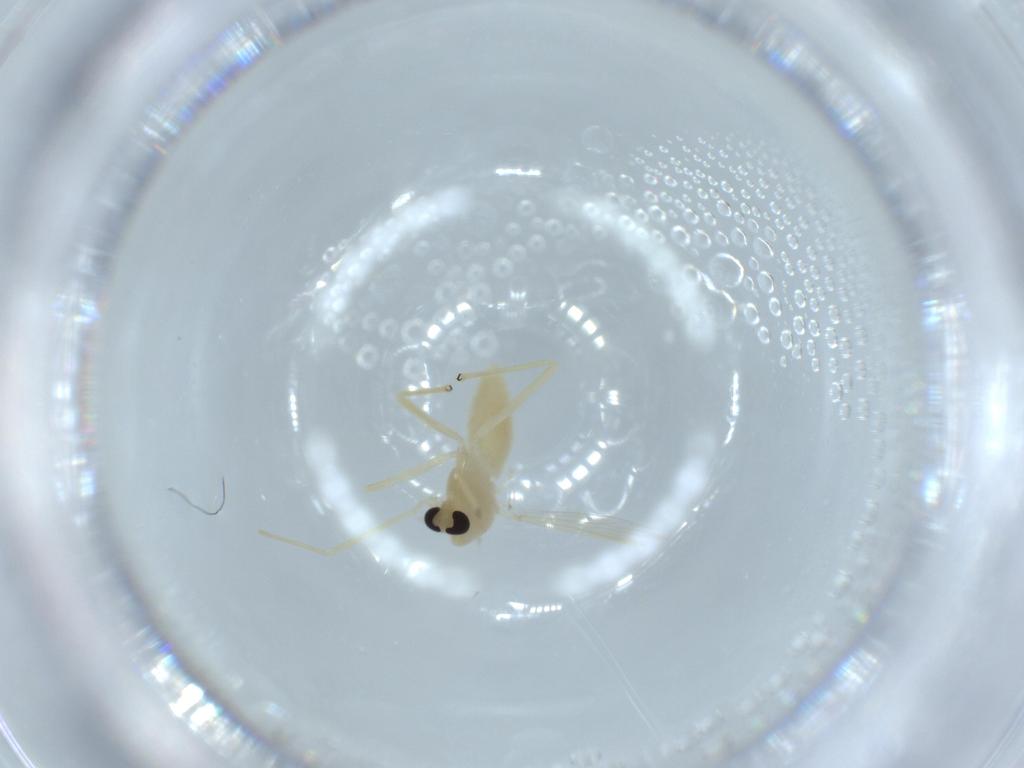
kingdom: Animalia
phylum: Arthropoda
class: Insecta
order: Diptera
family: Chironomidae
